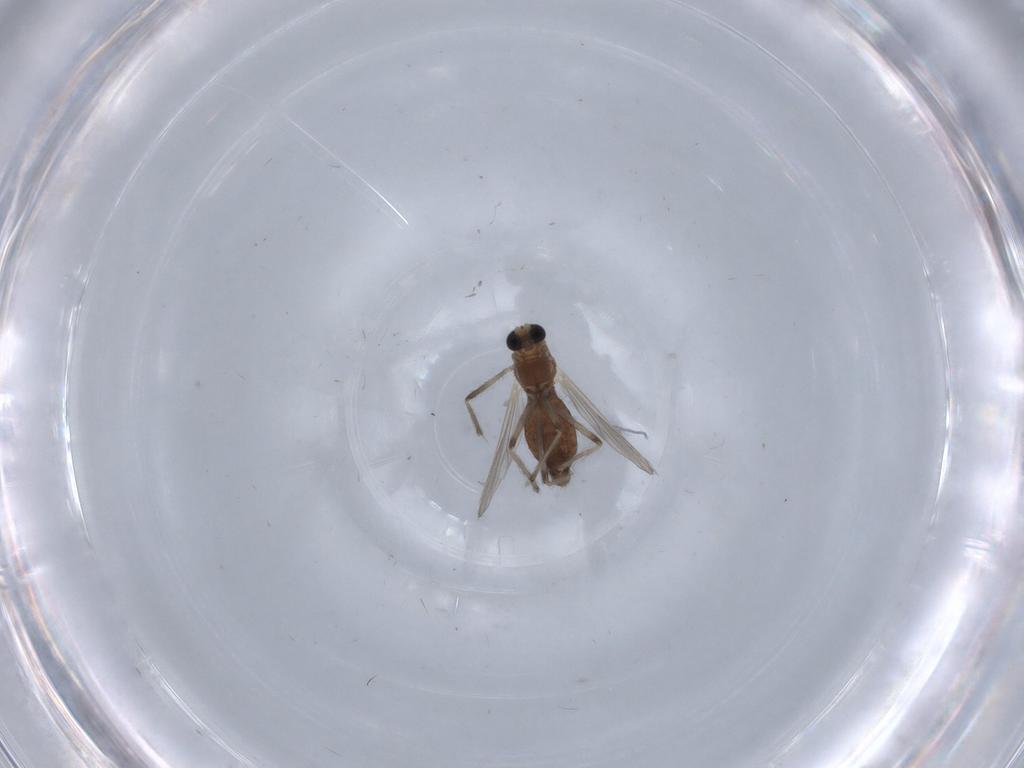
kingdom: Animalia
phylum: Arthropoda
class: Insecta
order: Diptera
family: Chironomidae
